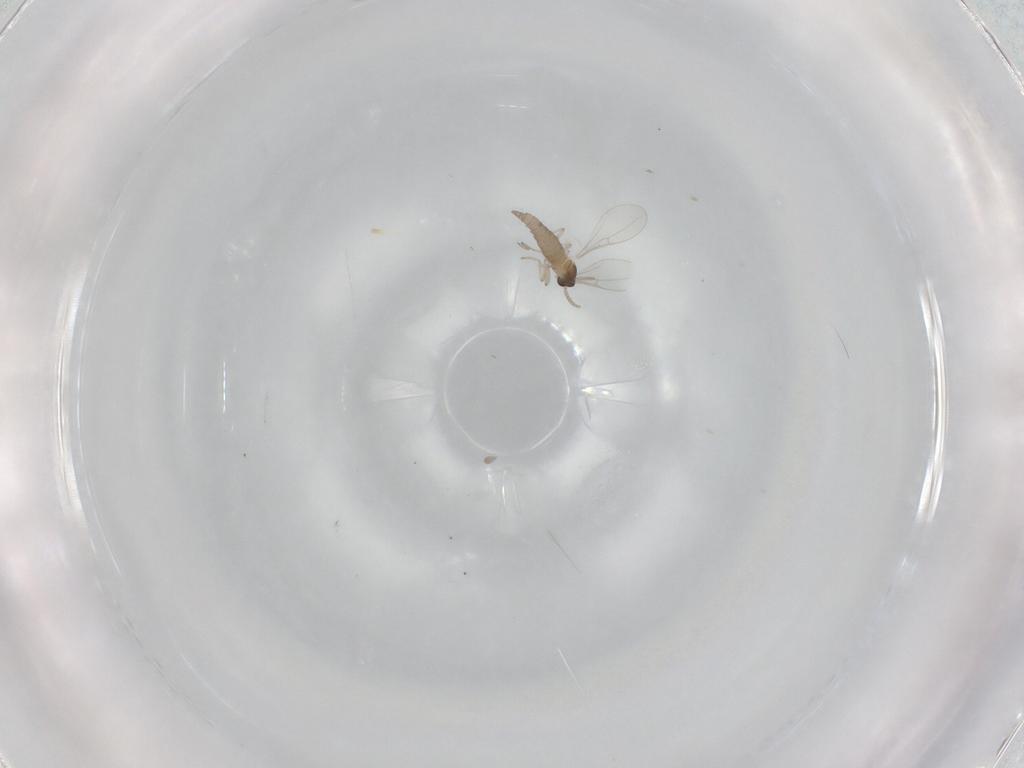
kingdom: Animalia
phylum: Arthropoda
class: Insecta
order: Diptera
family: Cecidomyiidae
